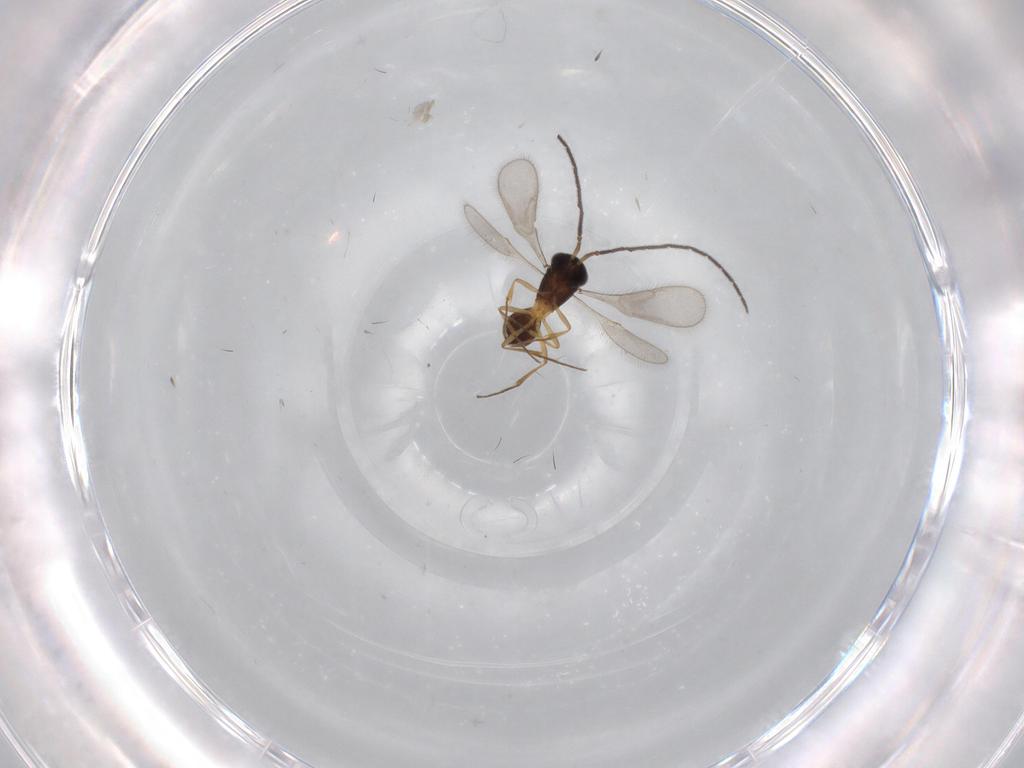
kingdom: Animalia
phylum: Arthropoda
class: Insecta
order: Hymenoptera
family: Scelionidae
